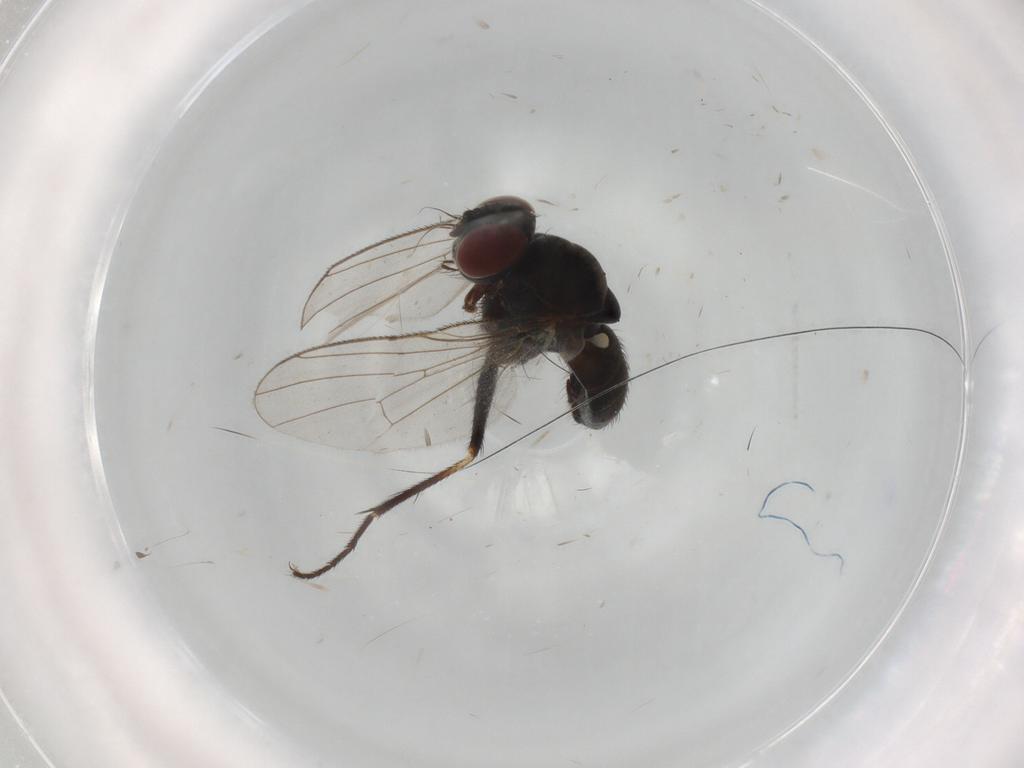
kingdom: Animalia
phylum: Arthropoda
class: Insecta
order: Diptera
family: Muscidae
